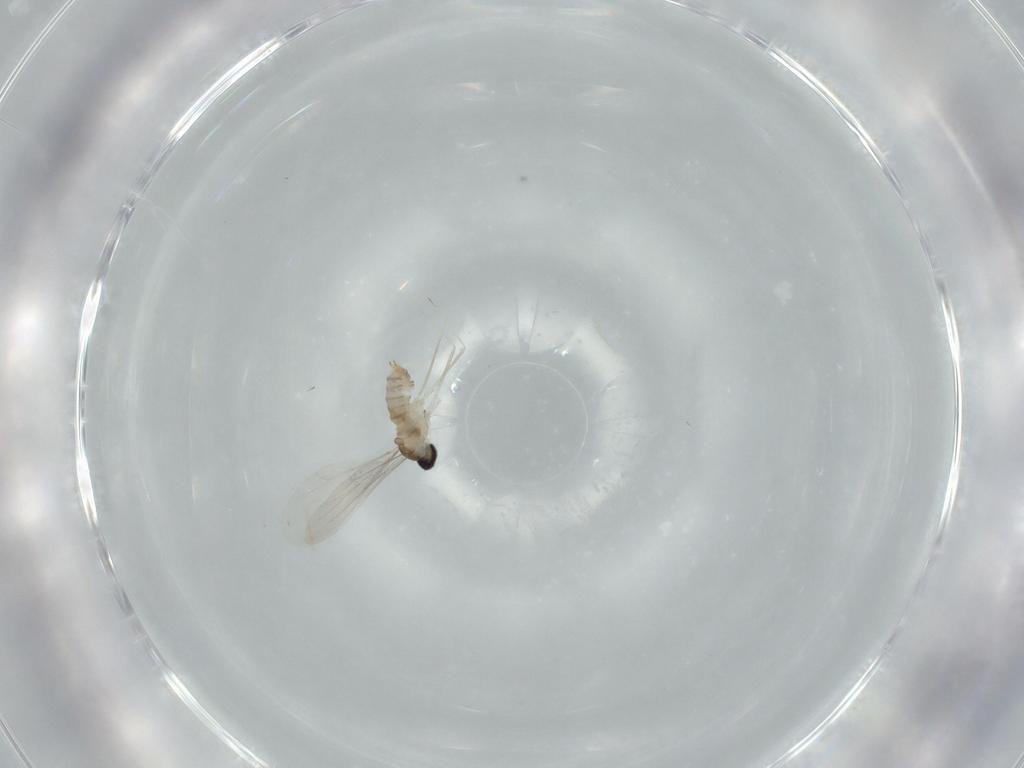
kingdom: Animalia
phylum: Arthropoda
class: Insecta
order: Diptera
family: Cecidomyiidae
